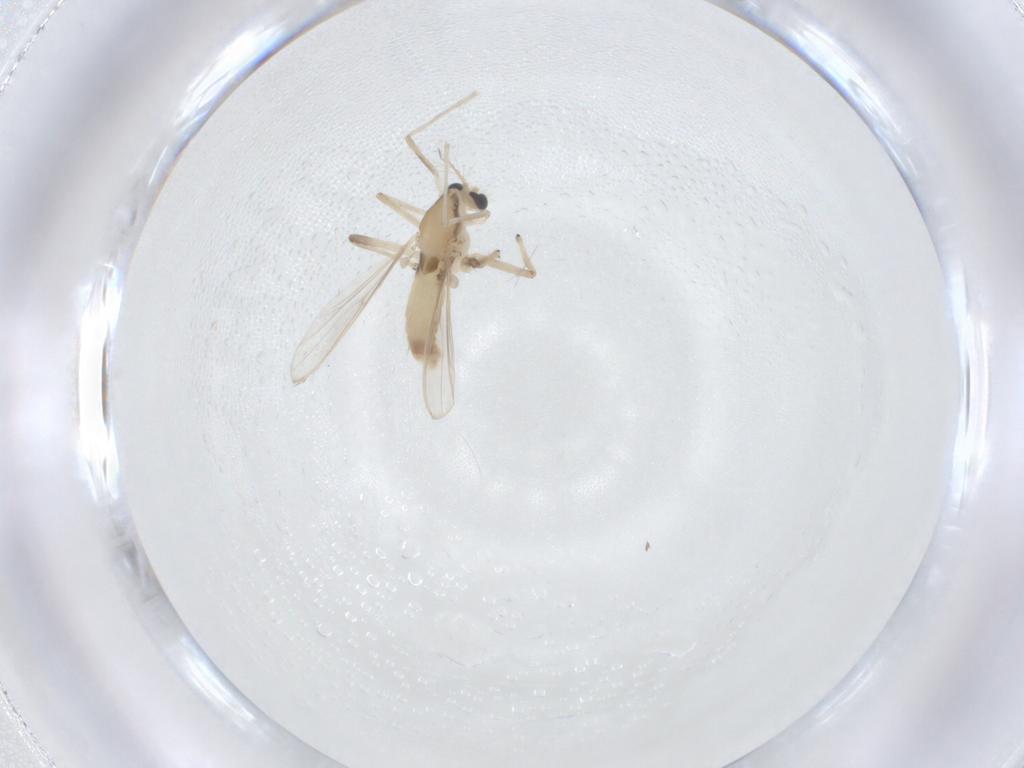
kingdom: Animalia
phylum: Arthropoda
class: Insecta
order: Diptera
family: Chironomidae
